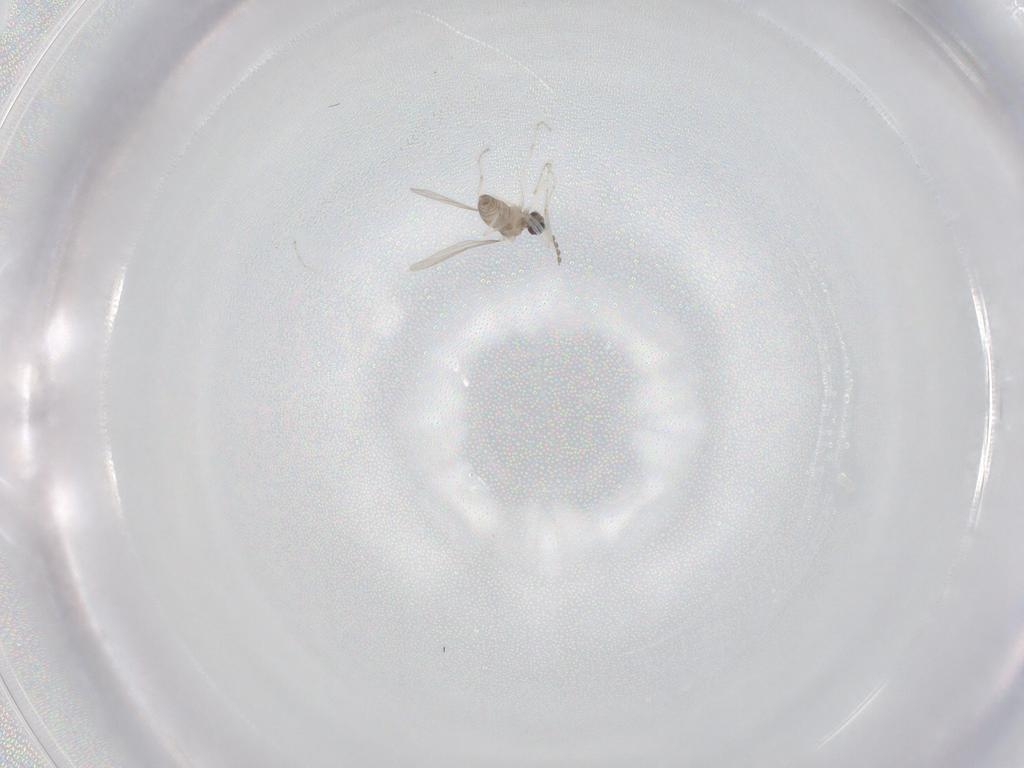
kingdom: Animalia
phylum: Arthropoda
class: Insecta
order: Diptera
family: Cecidomyiidae
